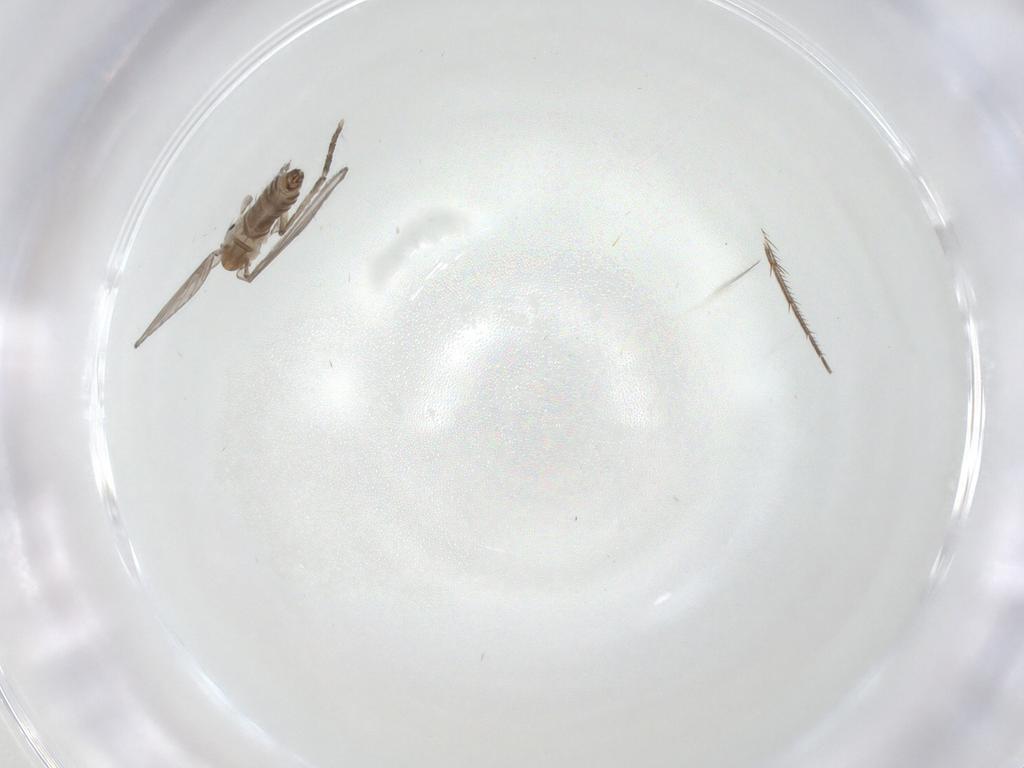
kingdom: Animalia
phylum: Arthropoda
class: Insecta
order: Diptera
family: Psychodidae
